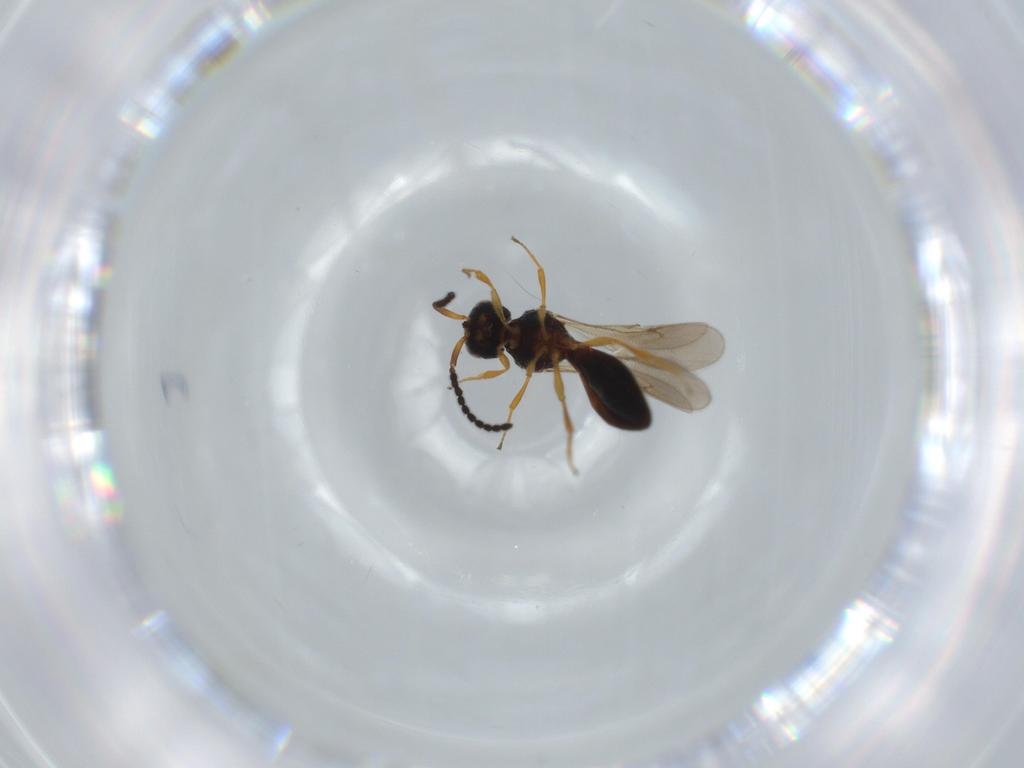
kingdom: Animalia
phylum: Arthropoda
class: Insecta
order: Hymenoptera
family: Scelionidae
